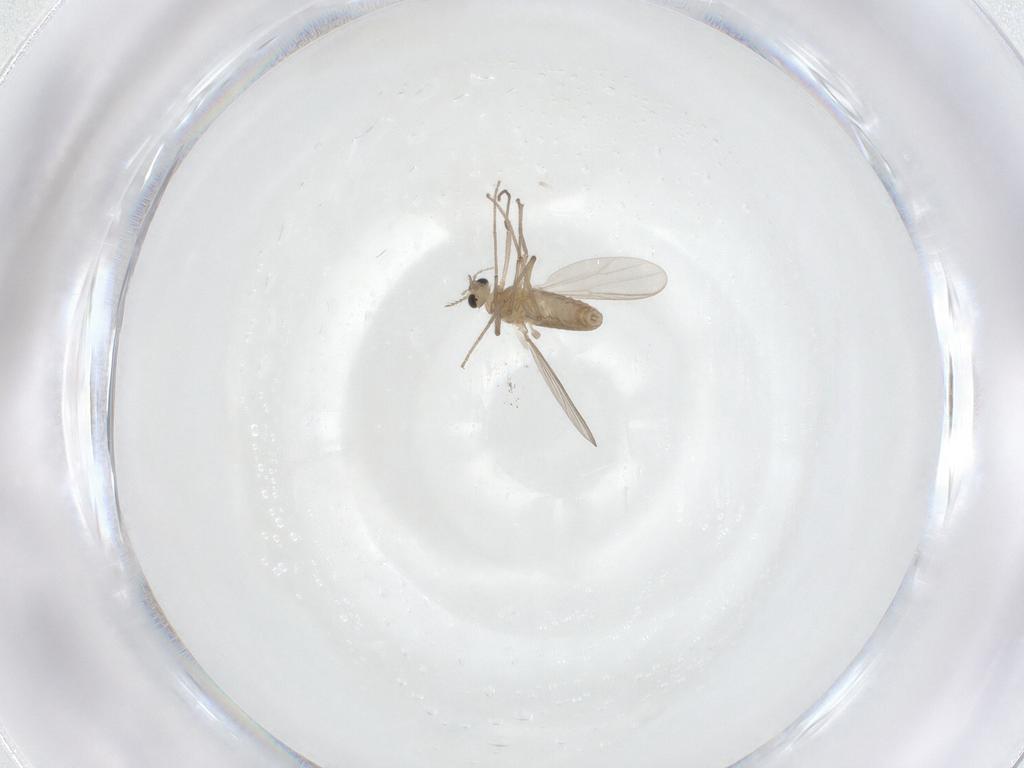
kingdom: Animalia
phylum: Arthropoda
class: Insecta
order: Diptera
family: Chironomidae
